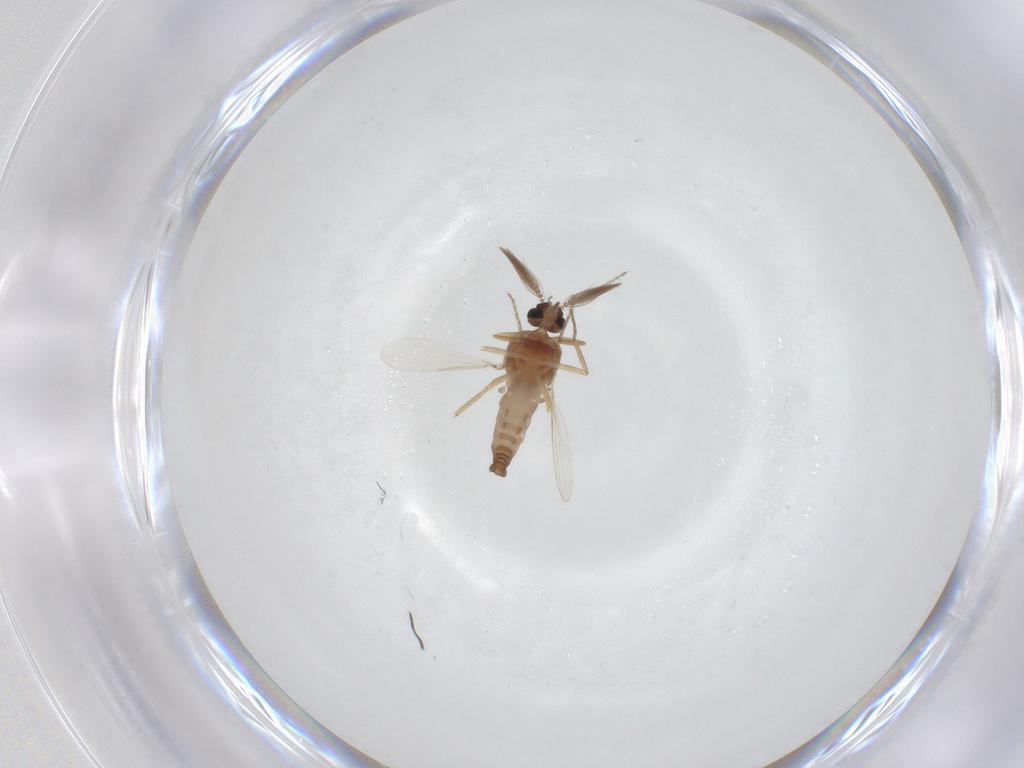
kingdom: Animalia
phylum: Arthropoda
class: Insecta
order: Diptera
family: Ceratopogonidae
